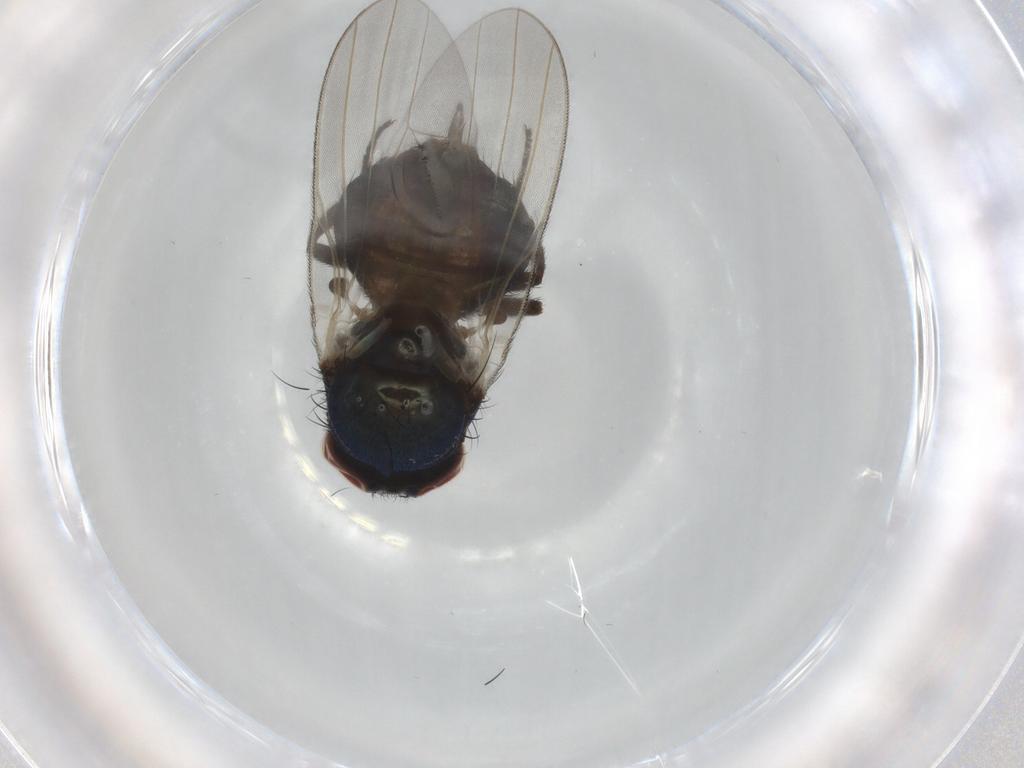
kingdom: Animalia
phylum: Arthropoda
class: Insecta
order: Diptera
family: Lonchaeidae
